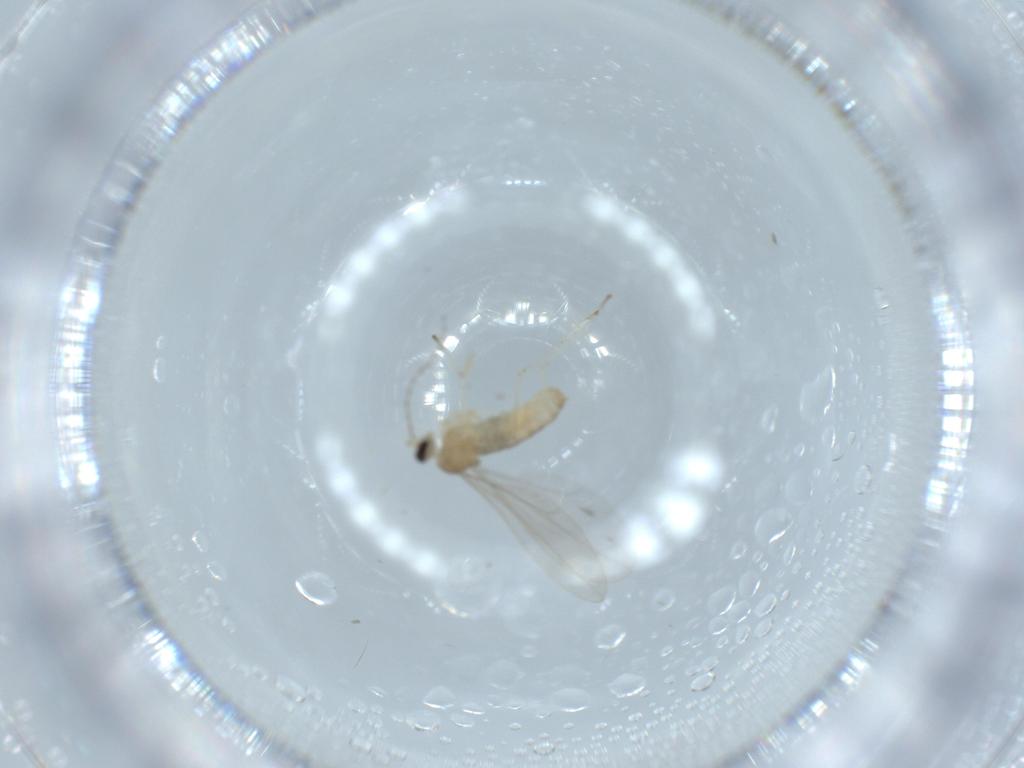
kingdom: Animalia
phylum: Arthropoda
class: Insecta
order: Diptera
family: Cecidomyiidae
